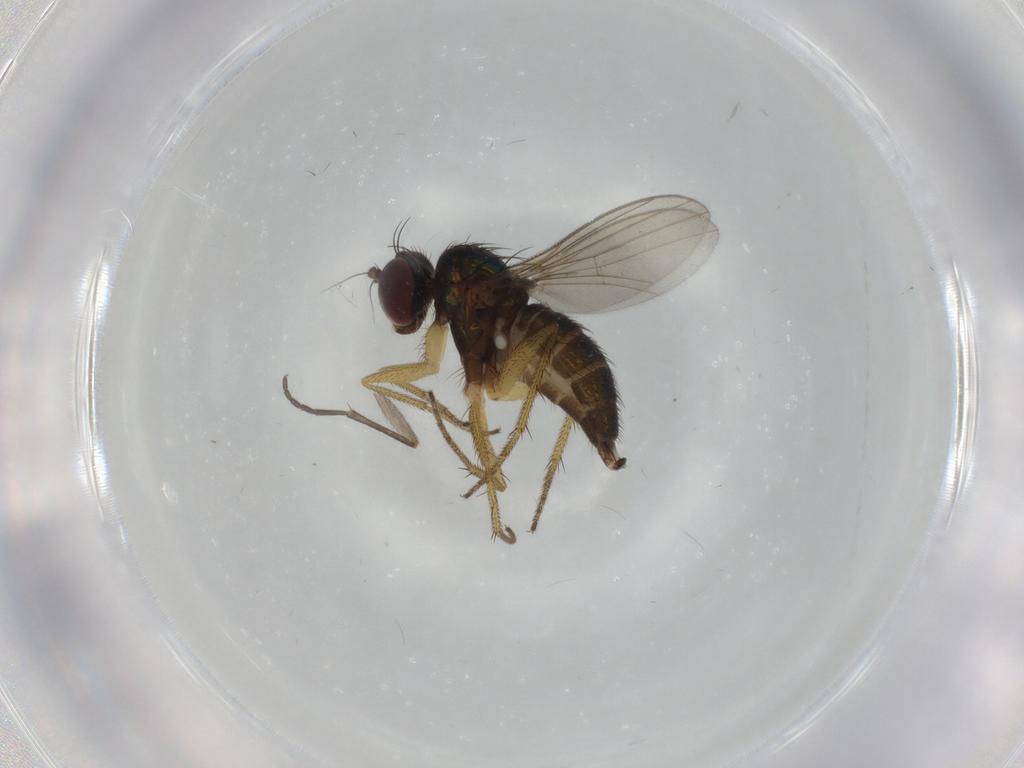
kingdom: Animalia
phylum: Arthropoda
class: Insecta
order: Diptera
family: Sciaridae
